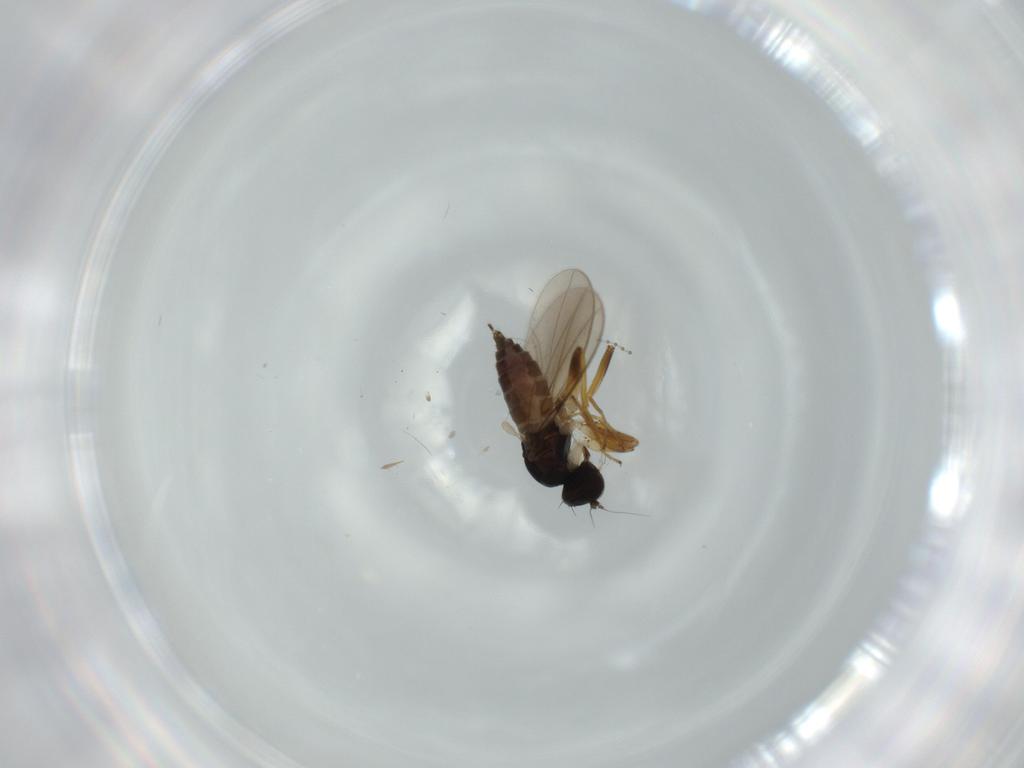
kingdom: Animalia
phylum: Arthropoda
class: Insecta
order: Diptera
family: Hybotidae
